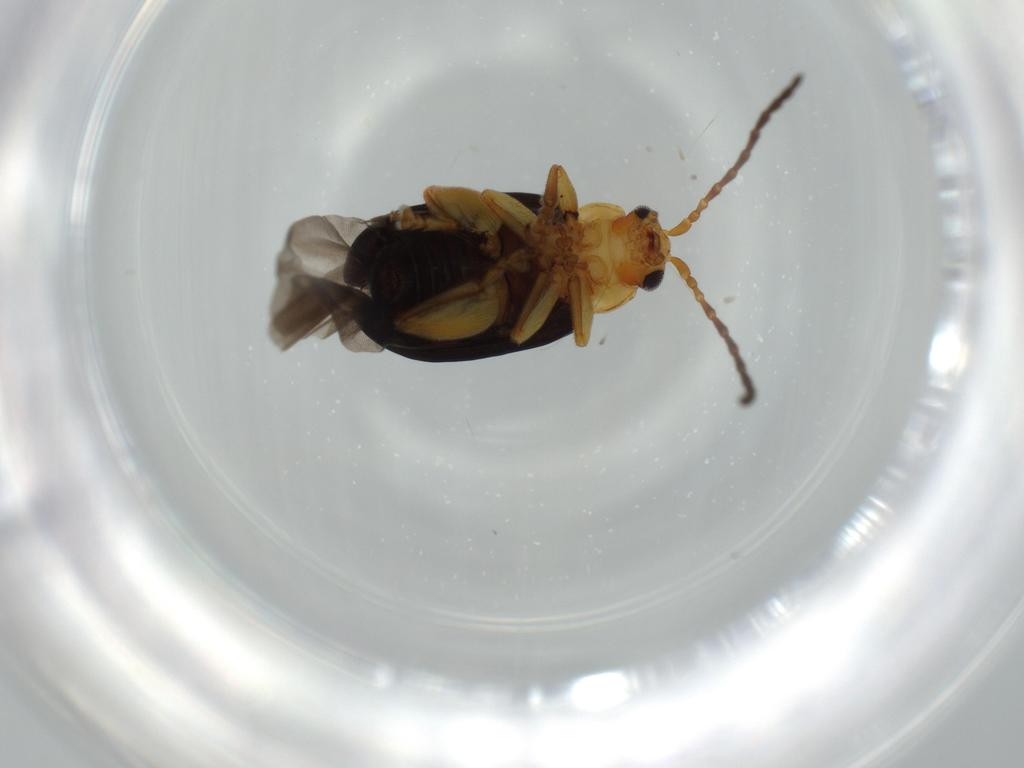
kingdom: Animalia
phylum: Arthropoda
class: Insecta
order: Coleoptera
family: Chrysomelidae
